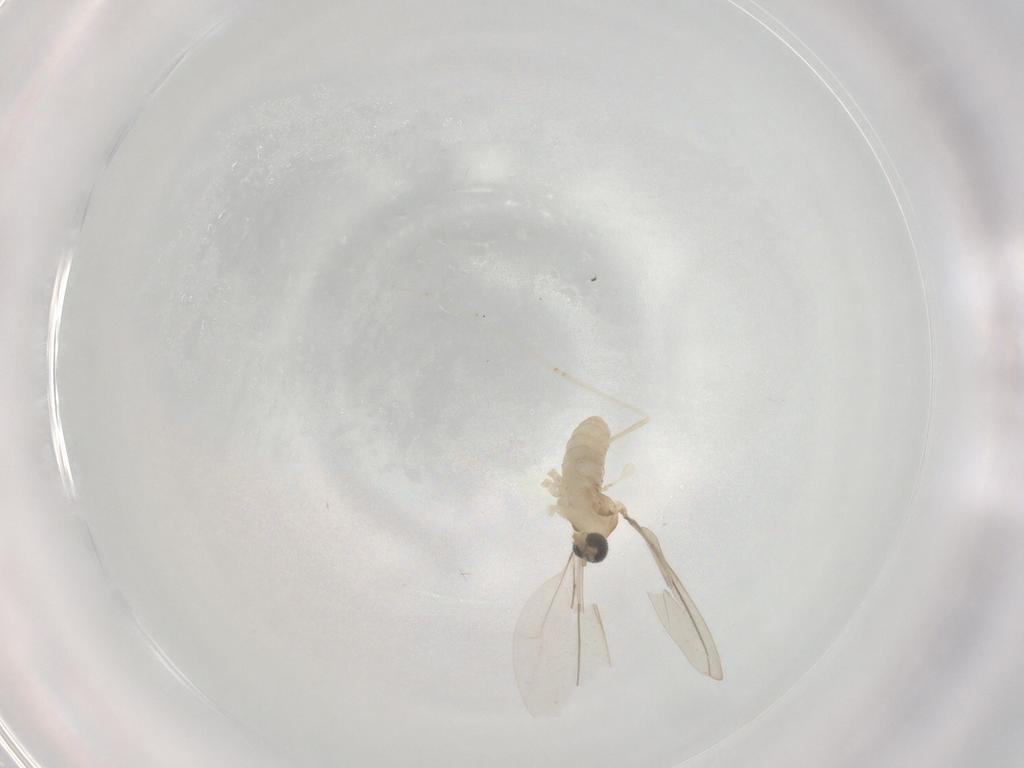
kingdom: Animalia
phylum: Arthropoda
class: Insecta
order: Diptera
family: Cecidomyiidae
